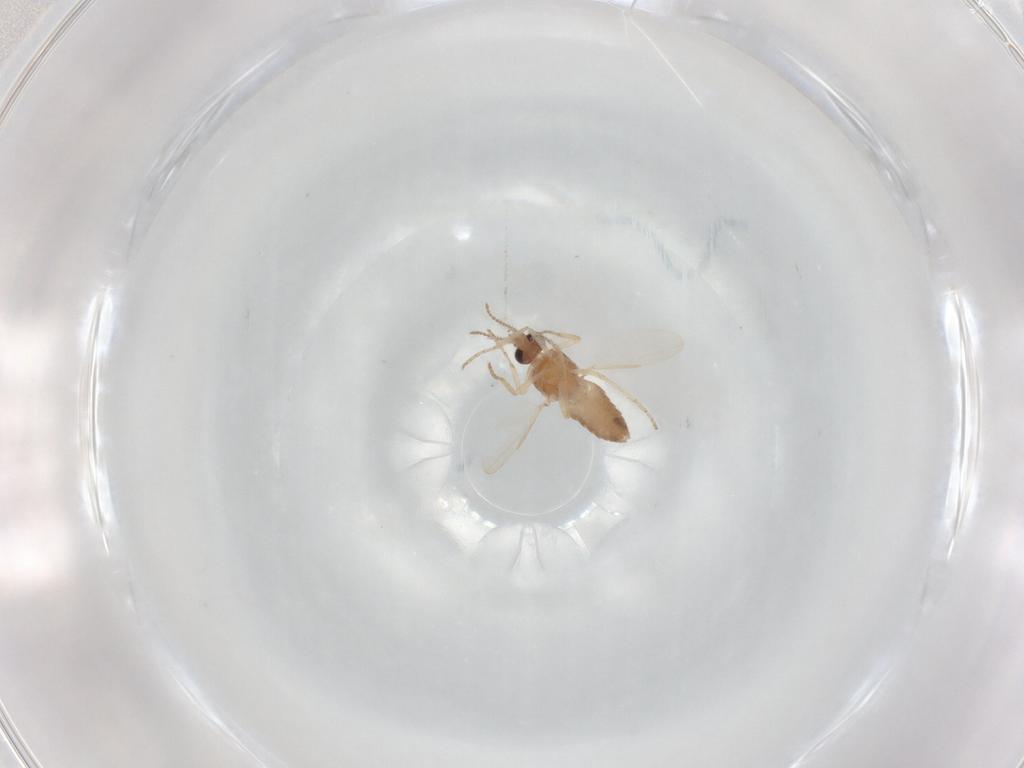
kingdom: Animalia
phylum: Arthropoda
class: Insecta
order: Diptera
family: Ceratopogonidae
